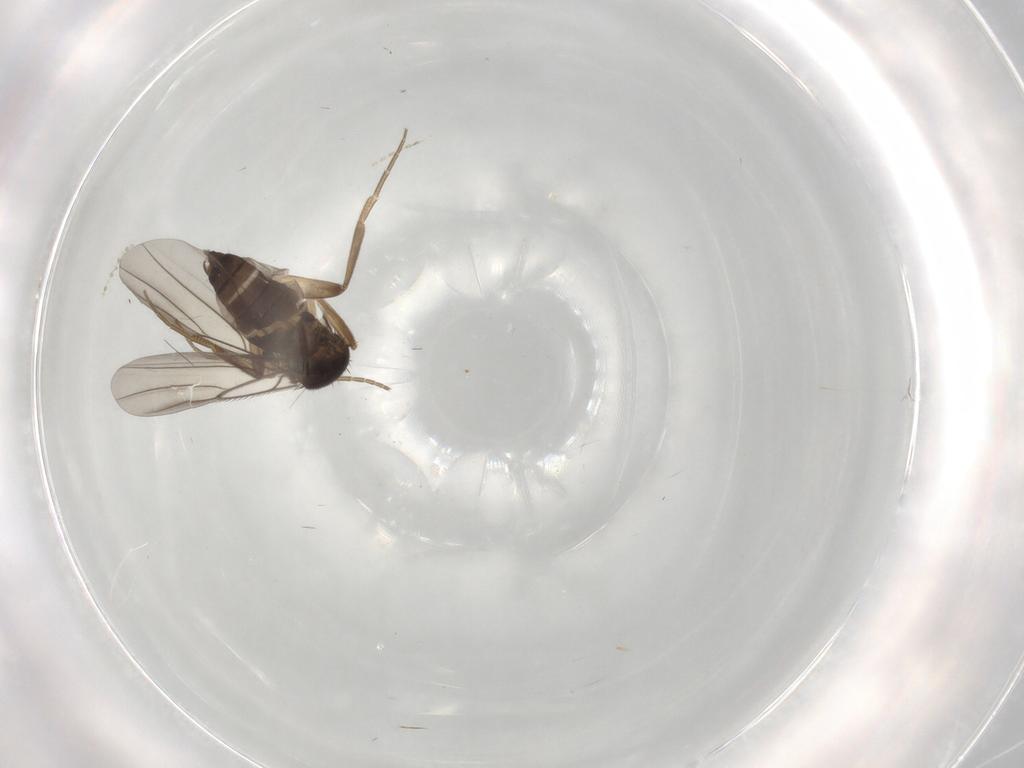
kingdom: Animalia
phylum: Arthropoda
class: Insecta
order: Diptera
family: Phoridae
